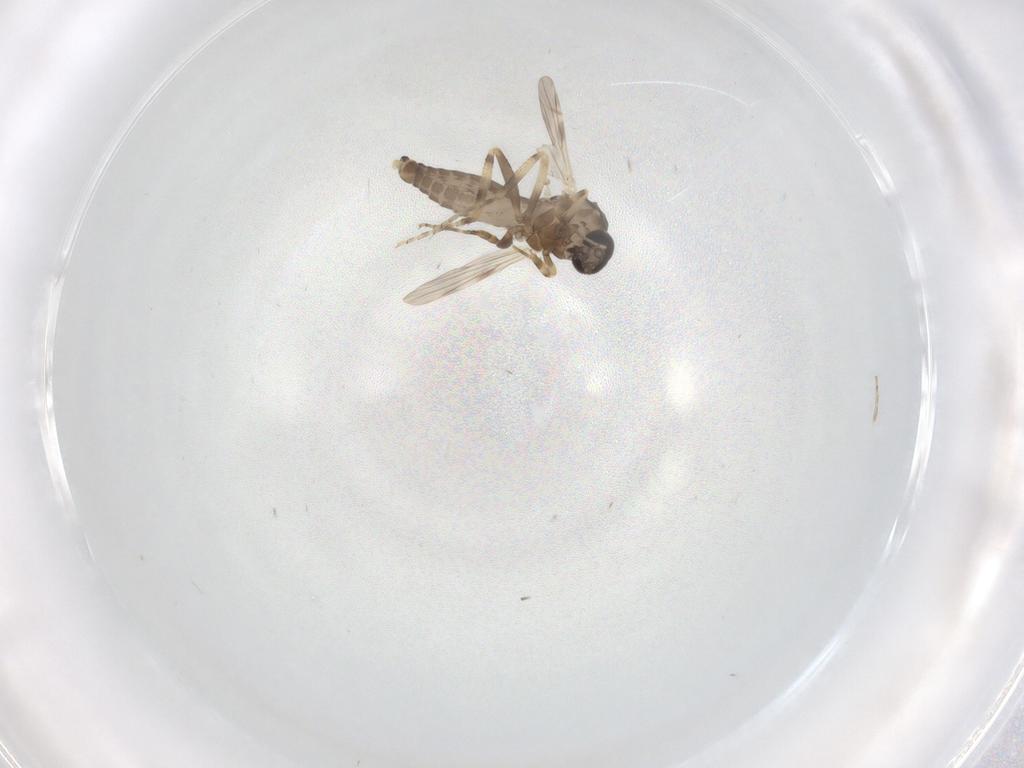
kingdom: Animalia
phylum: Arthropoda
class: Insecta
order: Diptera
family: Ceratopogonidae
